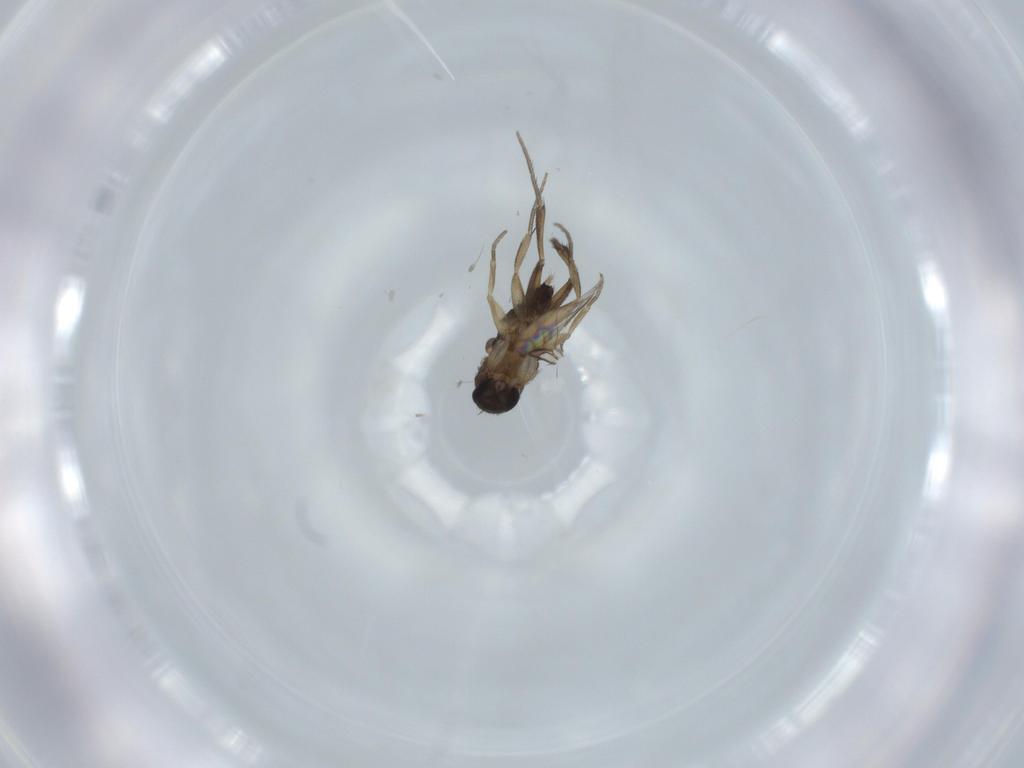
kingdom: Animalia
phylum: Arthropoda
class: Insecta
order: Diptera
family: Phoridae
